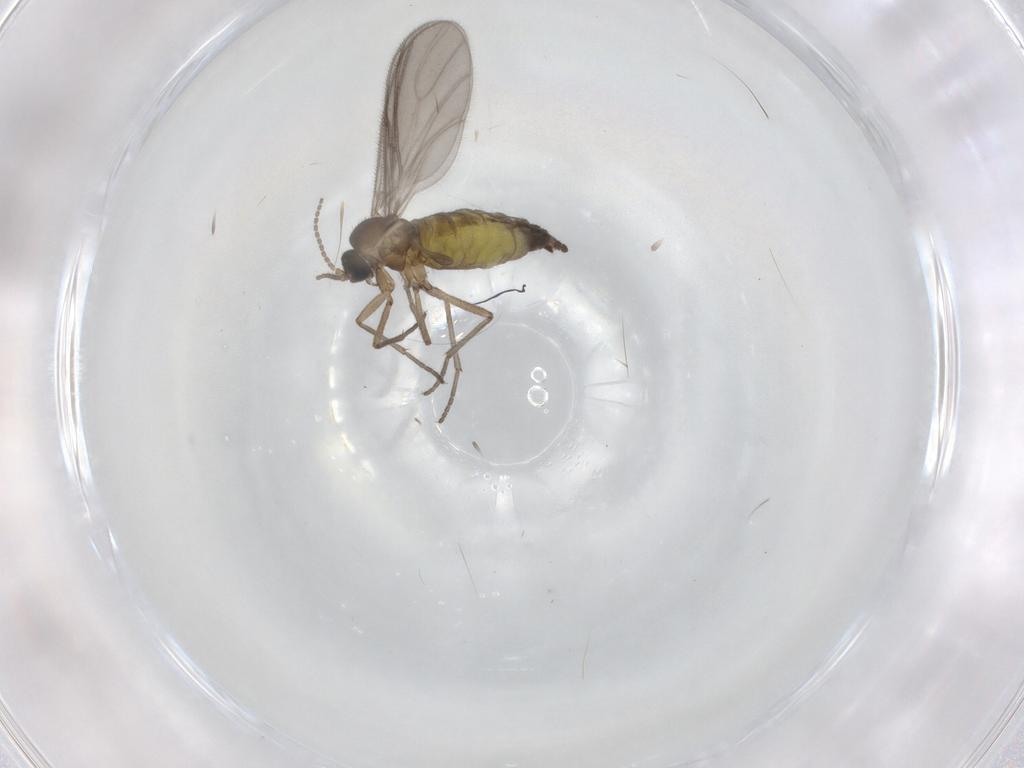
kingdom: Animalia
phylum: Arthropoda
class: Insecta
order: Diptera
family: Sciaridae
